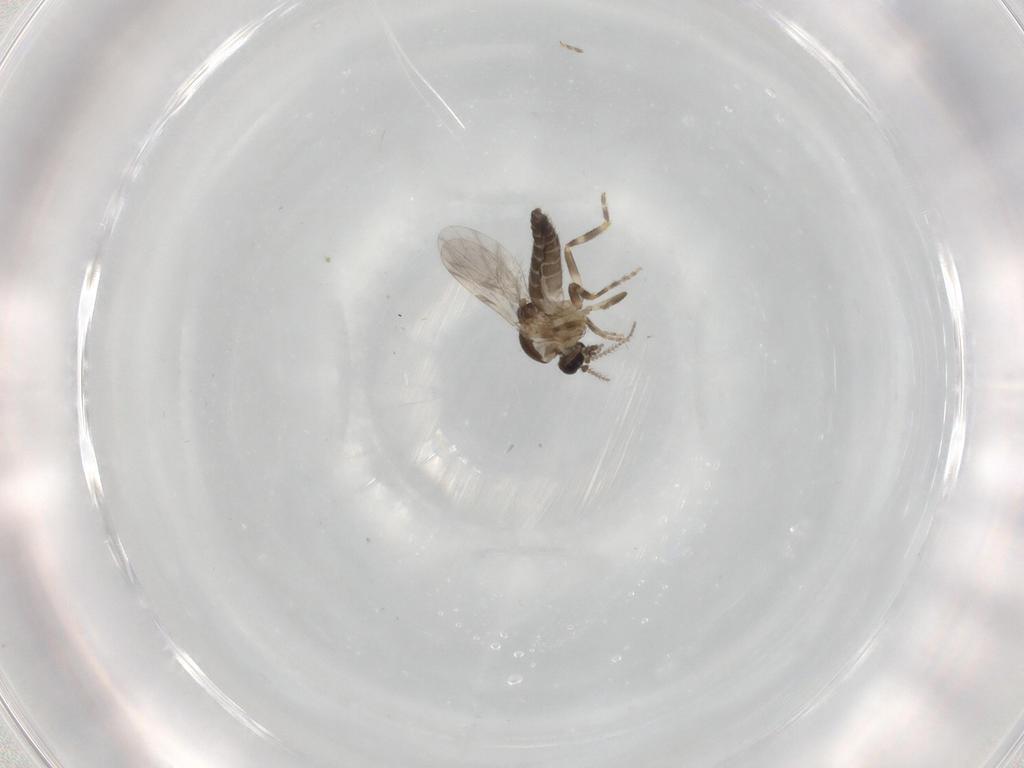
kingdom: Animalia
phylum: Arthropoda
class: Insecta
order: Diptera
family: Ceratopogonidae
